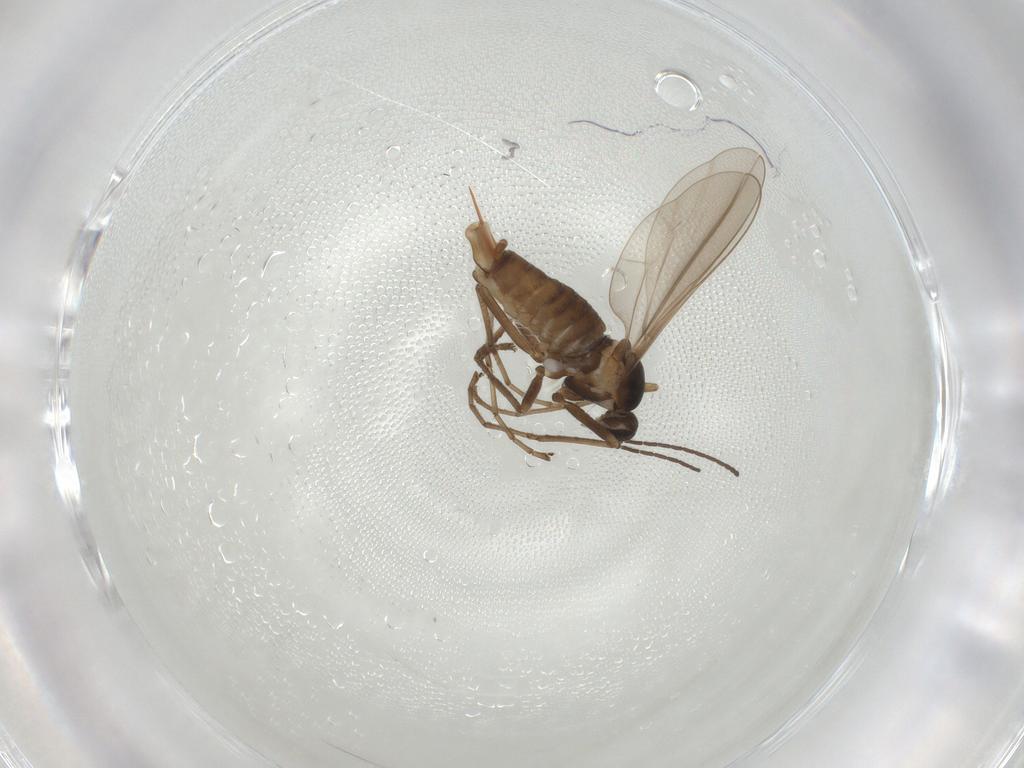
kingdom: Animalia
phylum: Arthropoda
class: Insecta
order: Diptera
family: Cecidomyiidae
